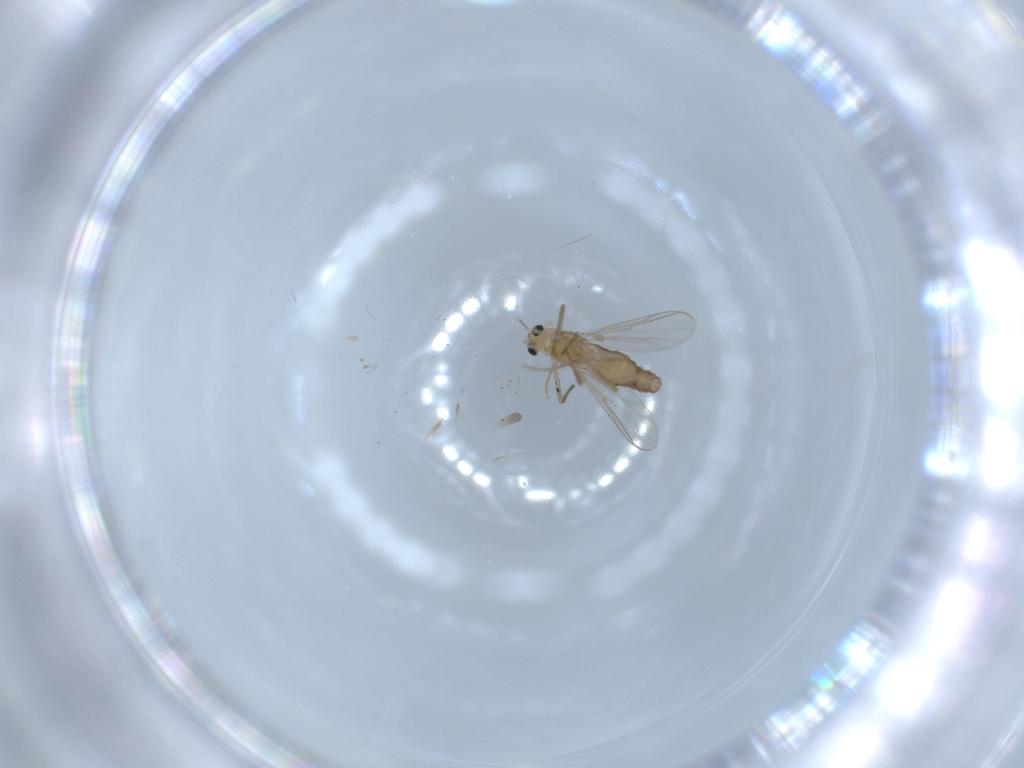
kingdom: Animalia
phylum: Arthropoda
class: Insecta
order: Diptera
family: Chironomidae
